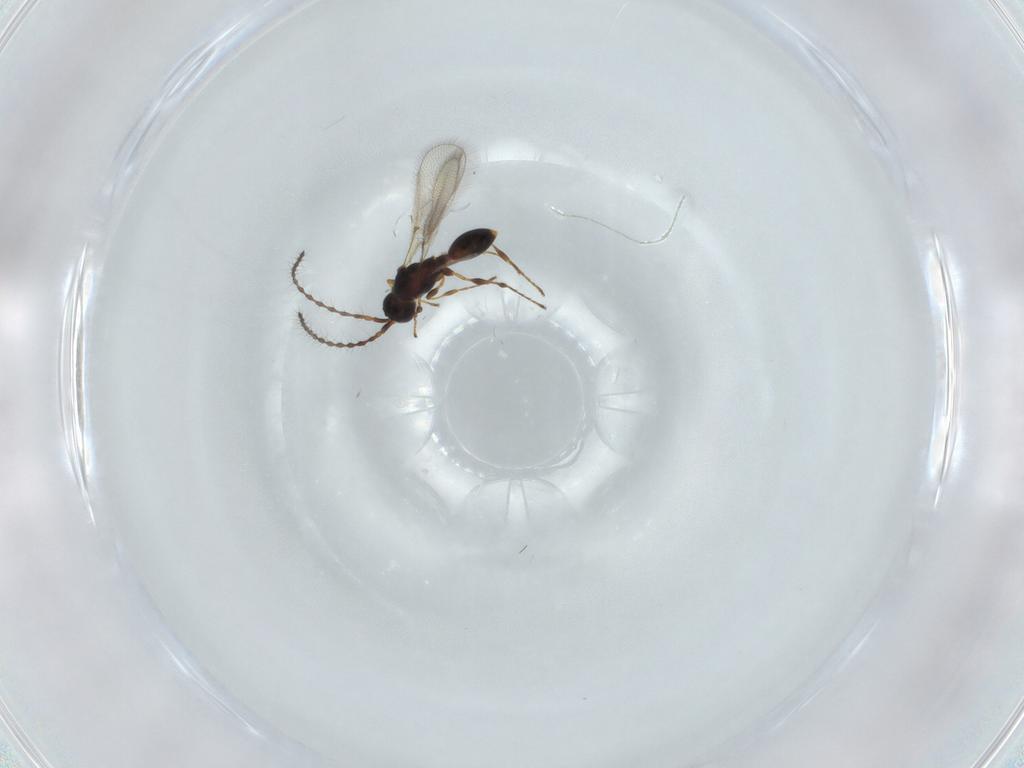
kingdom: Animalia
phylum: Arthropoda
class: Insecta
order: Hymenoptera
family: Diapriidae
